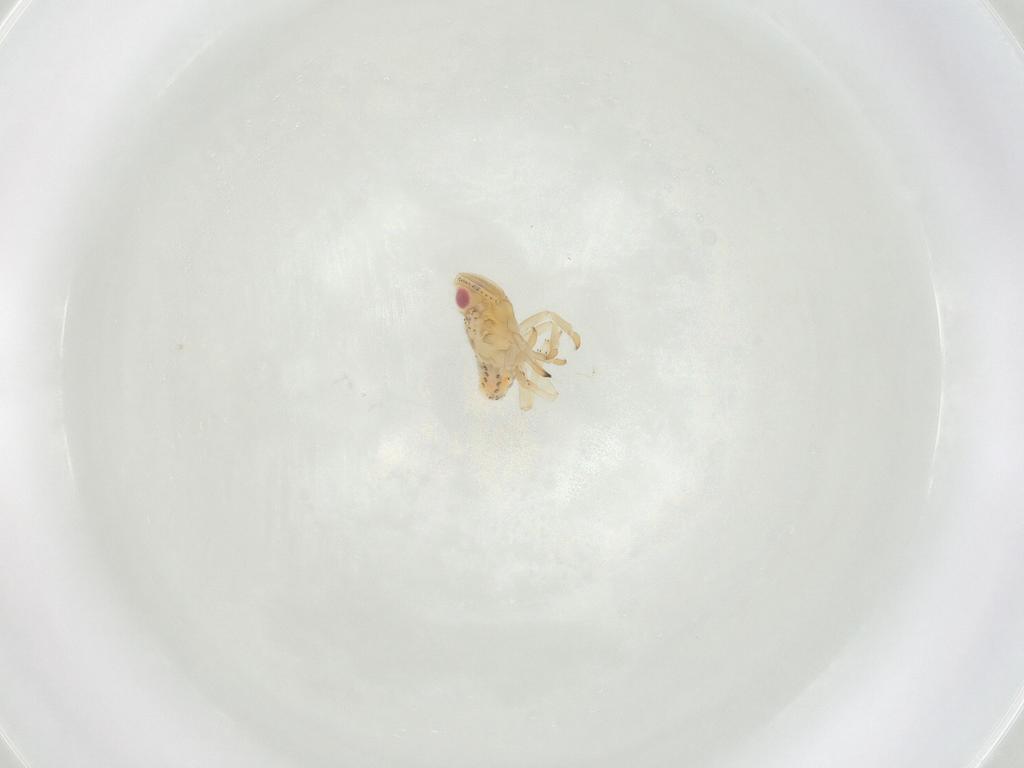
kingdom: Animalia
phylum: Arthropoda
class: Insecta
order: Hemiptera
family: Tropiduchidae
